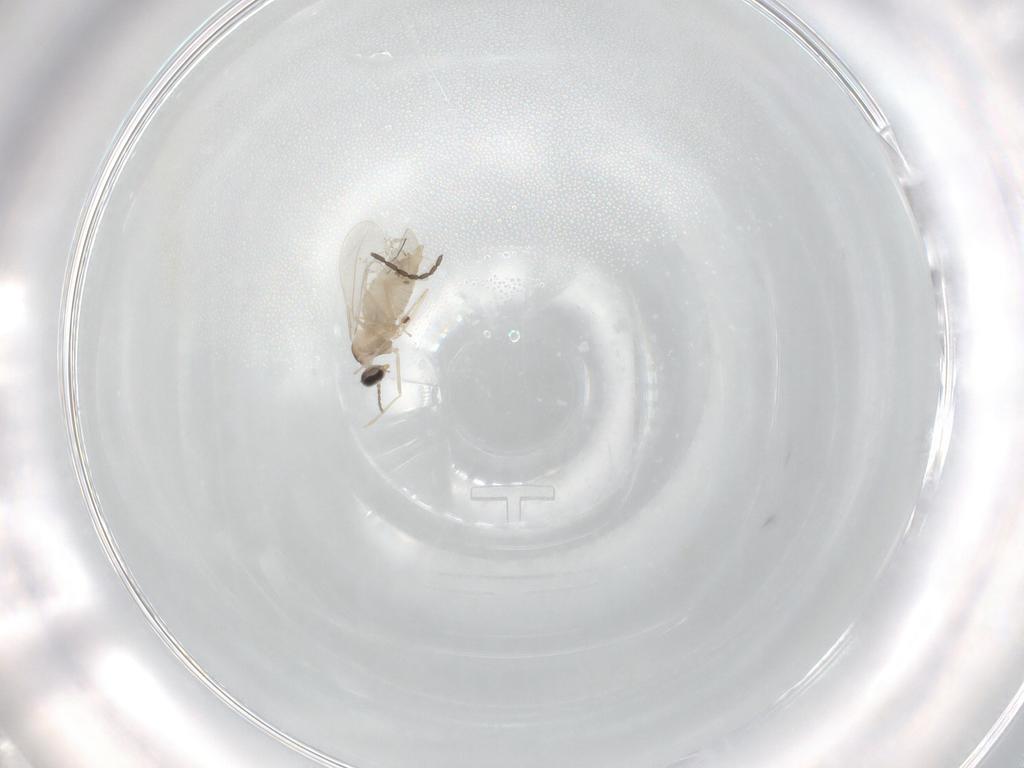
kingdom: Animalia
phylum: Arthropoda
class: Insecta
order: Diptera
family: Cecidomyiidae
